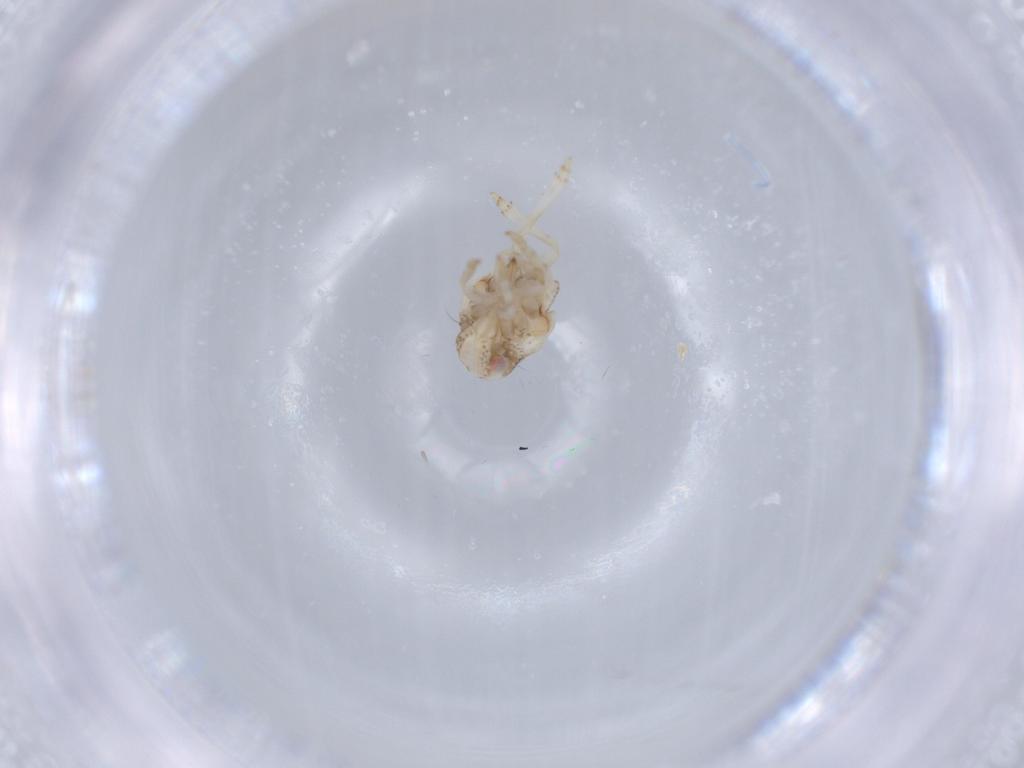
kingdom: Animalia
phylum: Arthropoda
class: Insecta
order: Hemiptera
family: Acanaloniidae
